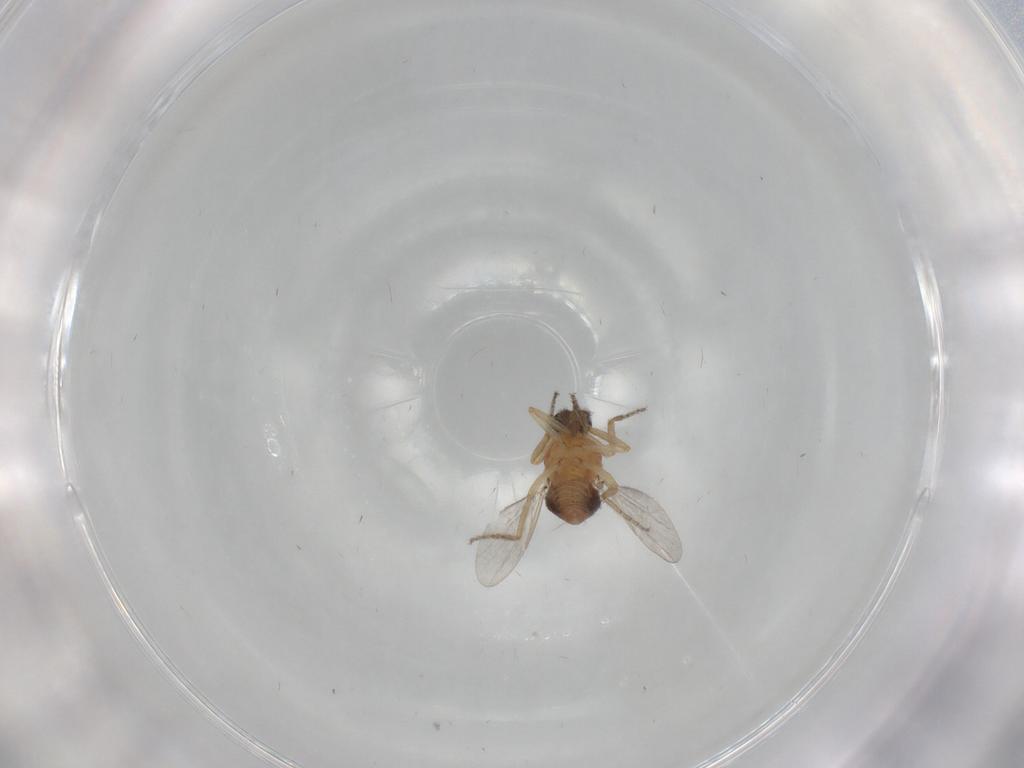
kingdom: Animalia
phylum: Arthropoda
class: Insecta
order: Diptera
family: Ceratopogonidae
